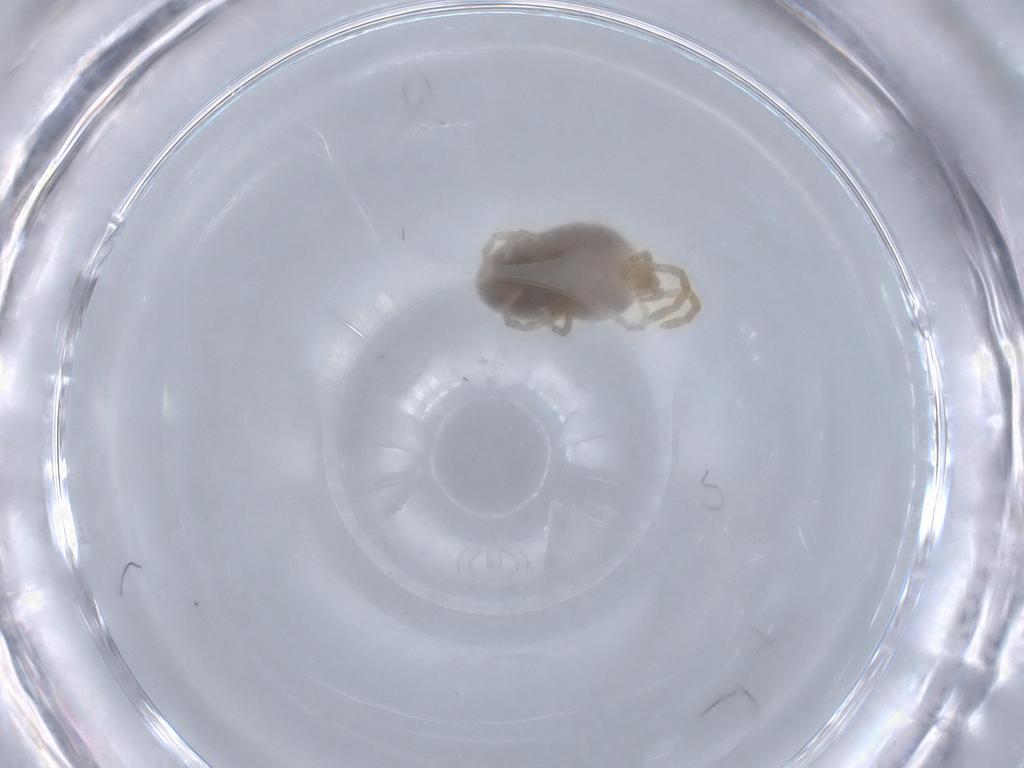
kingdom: Animalia
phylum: Arthropoda
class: Arachnida
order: Trombidiformes
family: Trombidiidae
